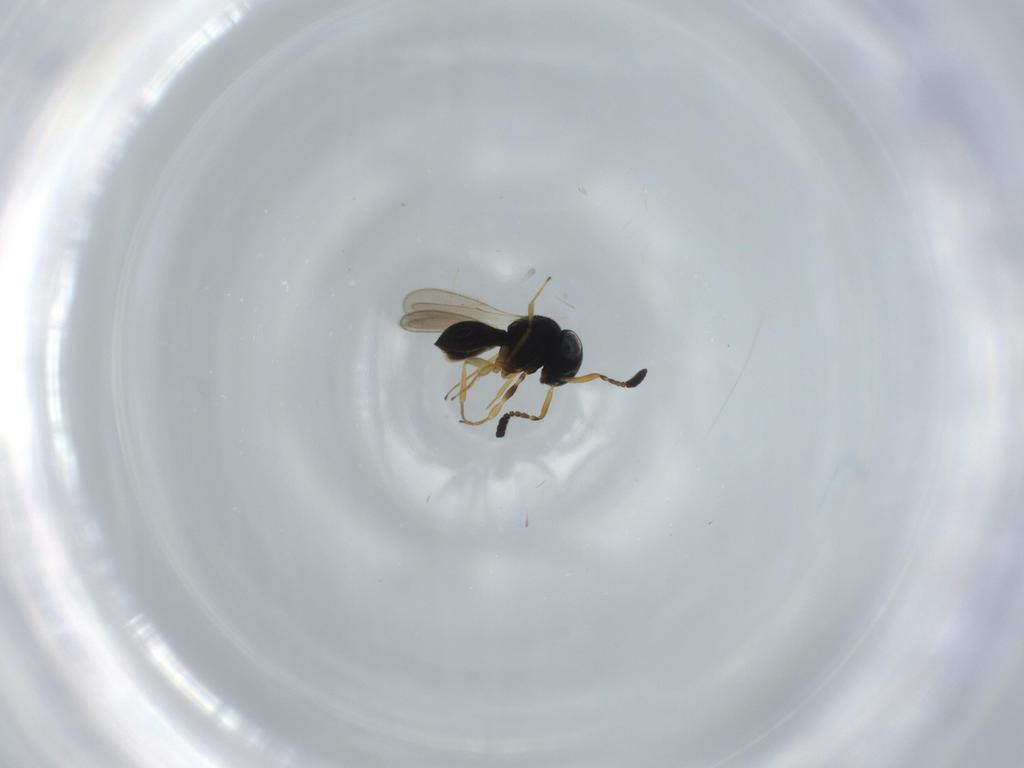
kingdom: Animalia
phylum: Arthropoda
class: Insecta
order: Hymenoptera
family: Scelionidae
